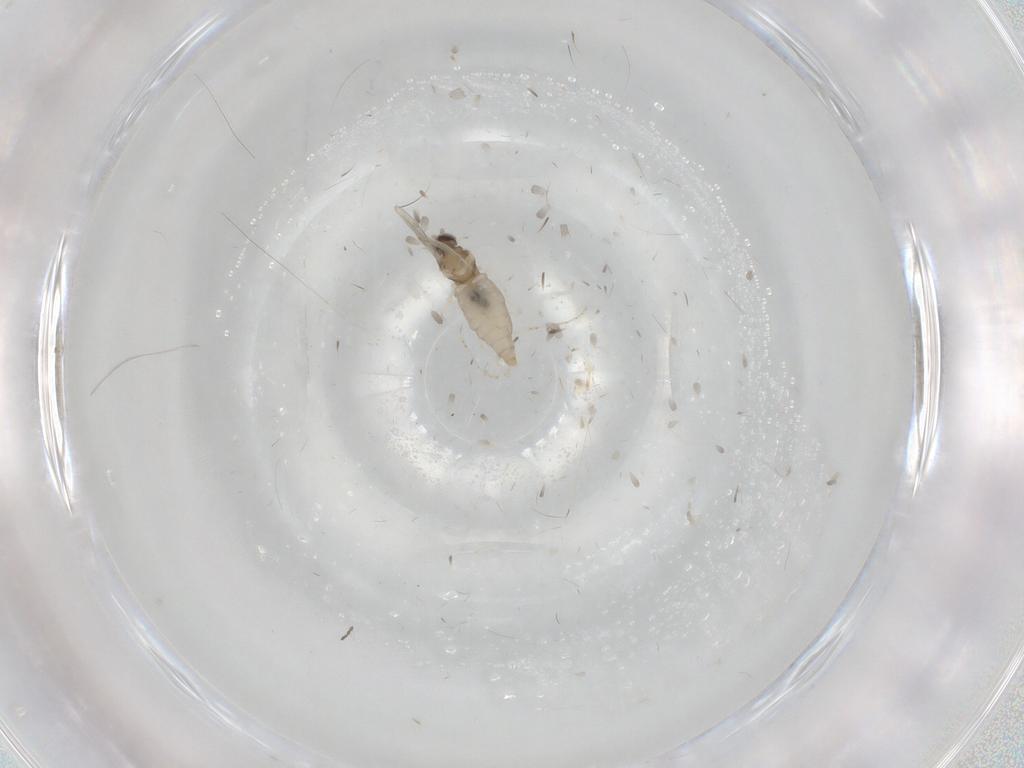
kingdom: Animalia
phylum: Arthropoda
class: Insecta
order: Diptera
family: Cecidomyiidae
